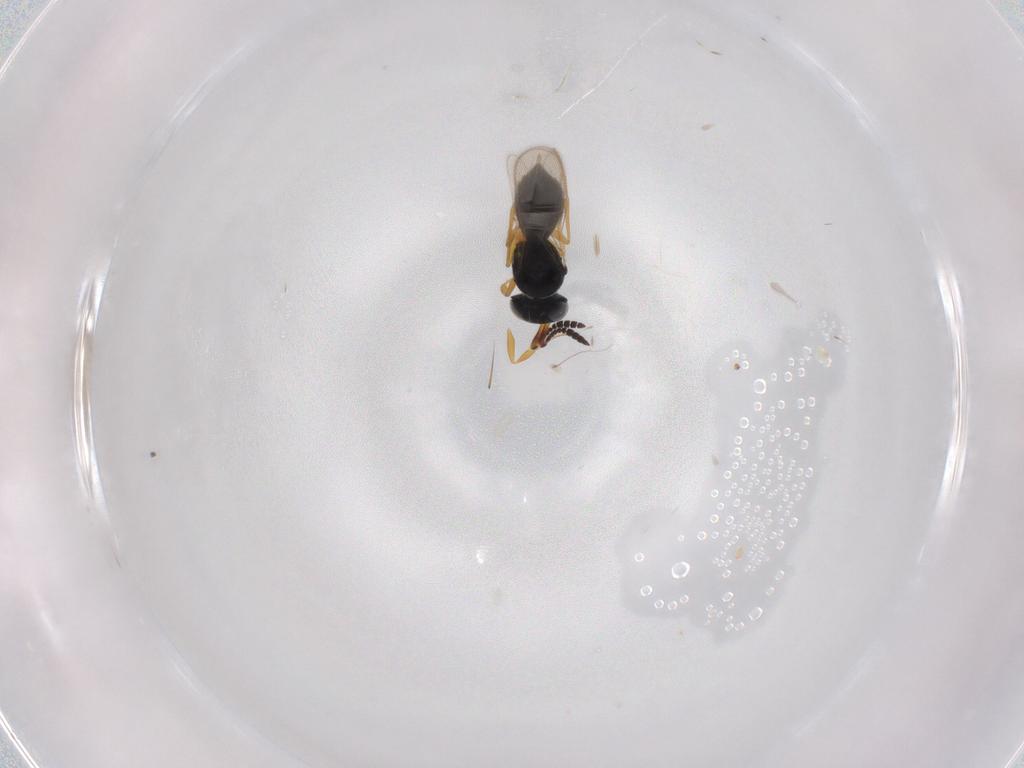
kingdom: Animalia
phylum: Arthropoda
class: Insecta
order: Hymenoptera
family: Scelionidae
